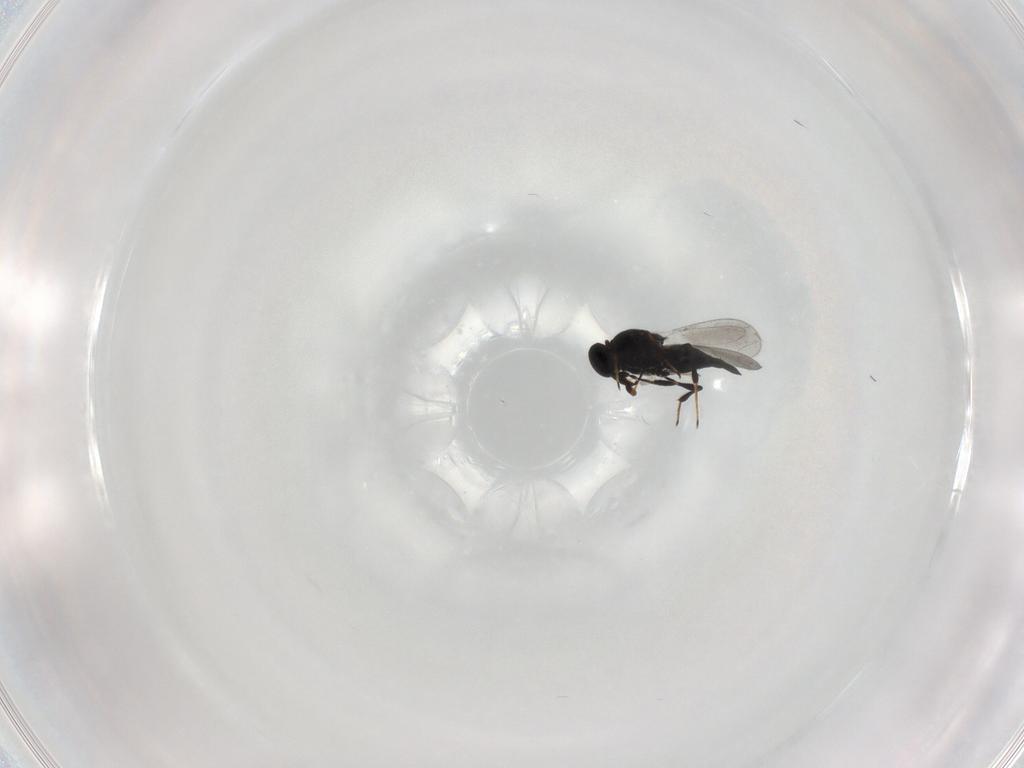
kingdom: Animalia
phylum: Arthropoda
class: Insecta
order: Hymenoptera
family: Platygastridae
